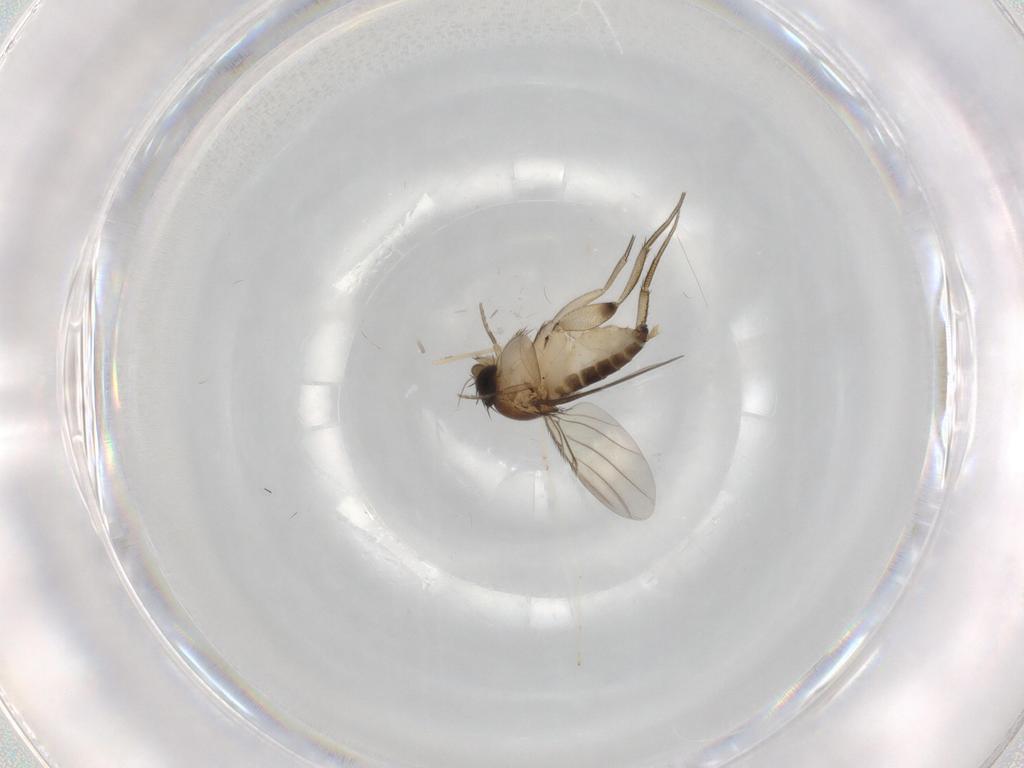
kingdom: Animalia
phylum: Arthropoda
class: Insecta
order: Diptera
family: Phoridae
